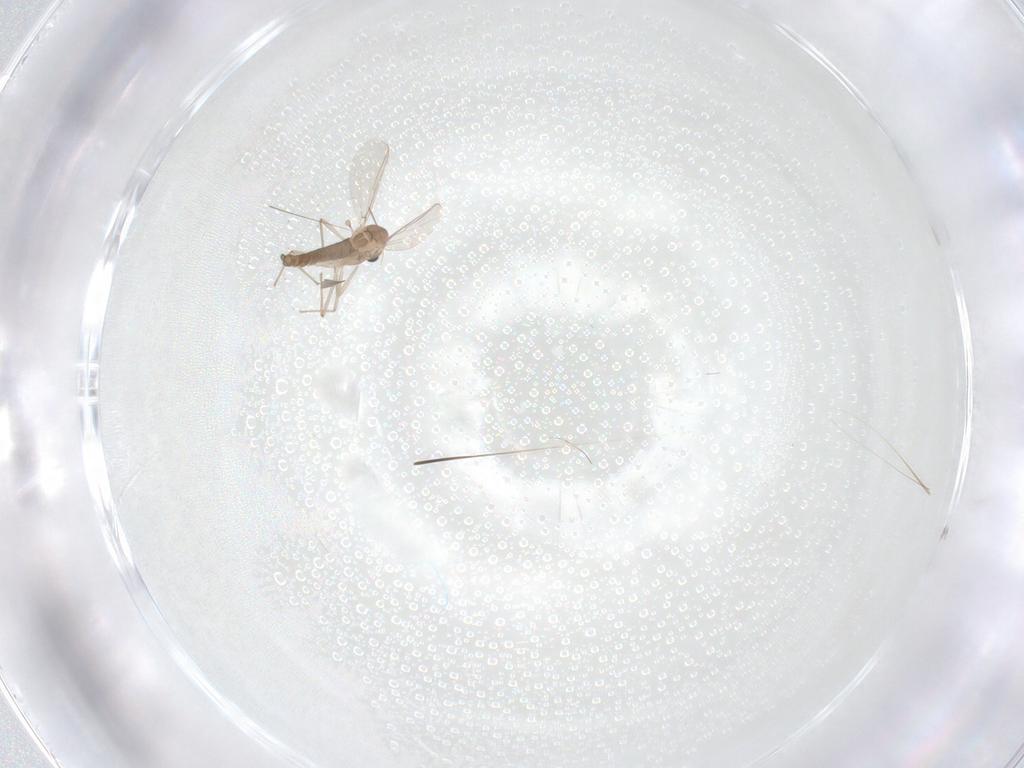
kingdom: Animalia
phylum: Arthropoda
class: Insecta
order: Diptera
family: Chironomidae
